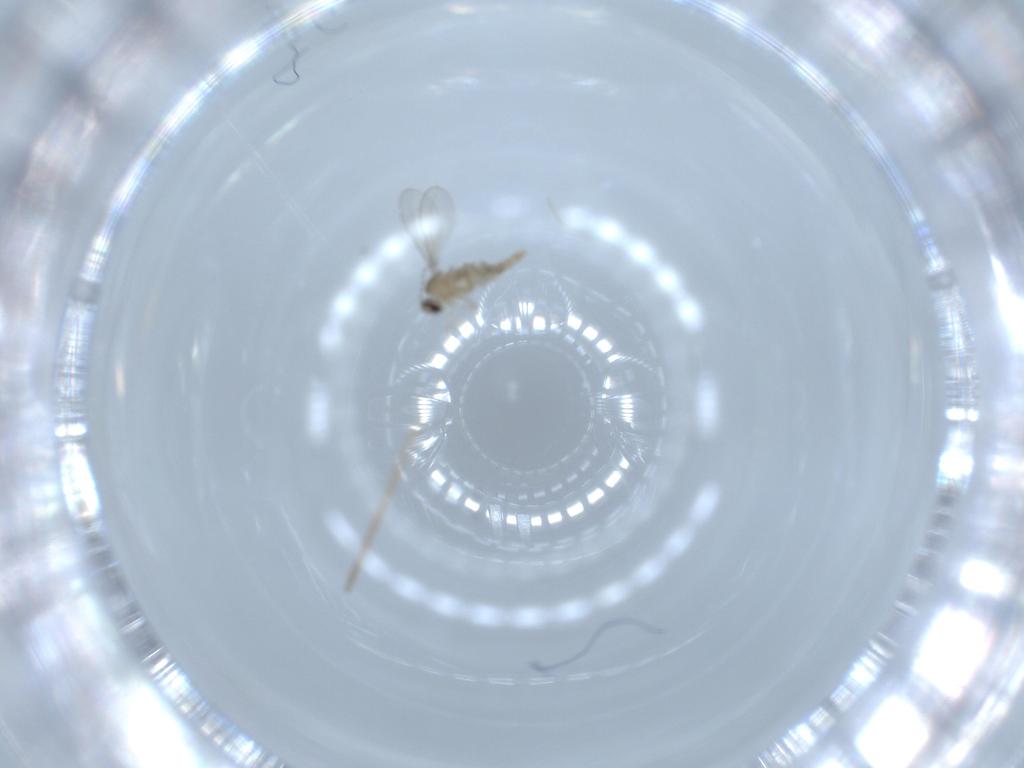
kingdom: Animalia
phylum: Arthropoda
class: Insecta
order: Diptera
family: Cecidomyiidae
